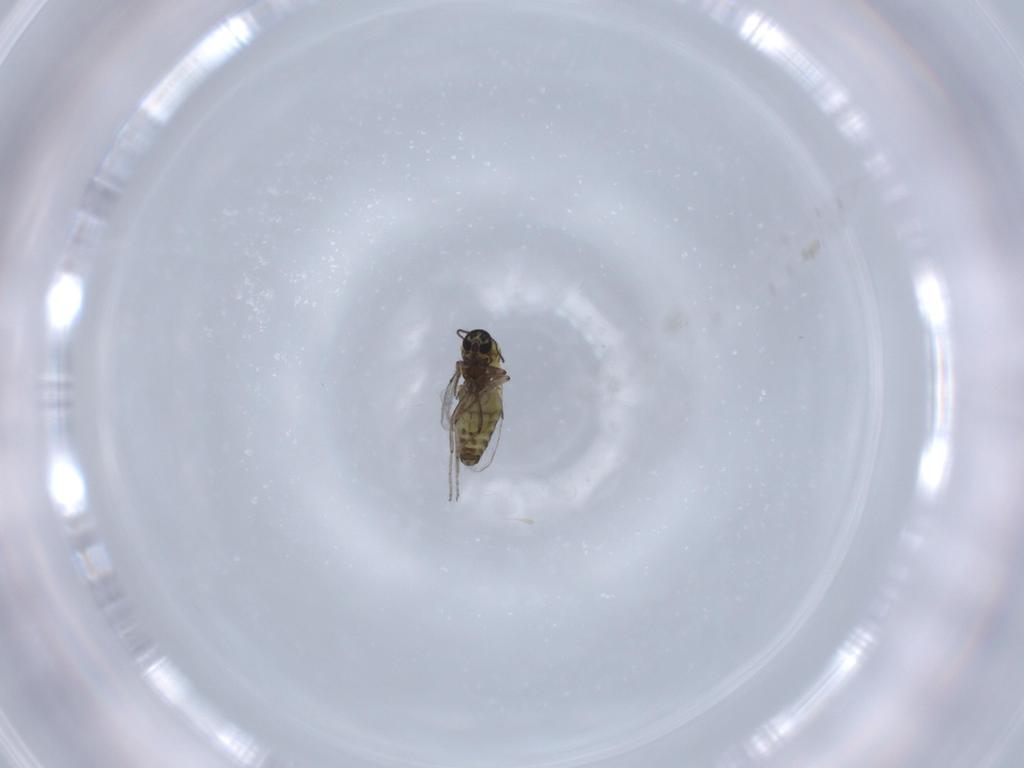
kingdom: Animalia
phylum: Arthropoda
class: Insecta
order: Diptera
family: Ceratopogonidae
